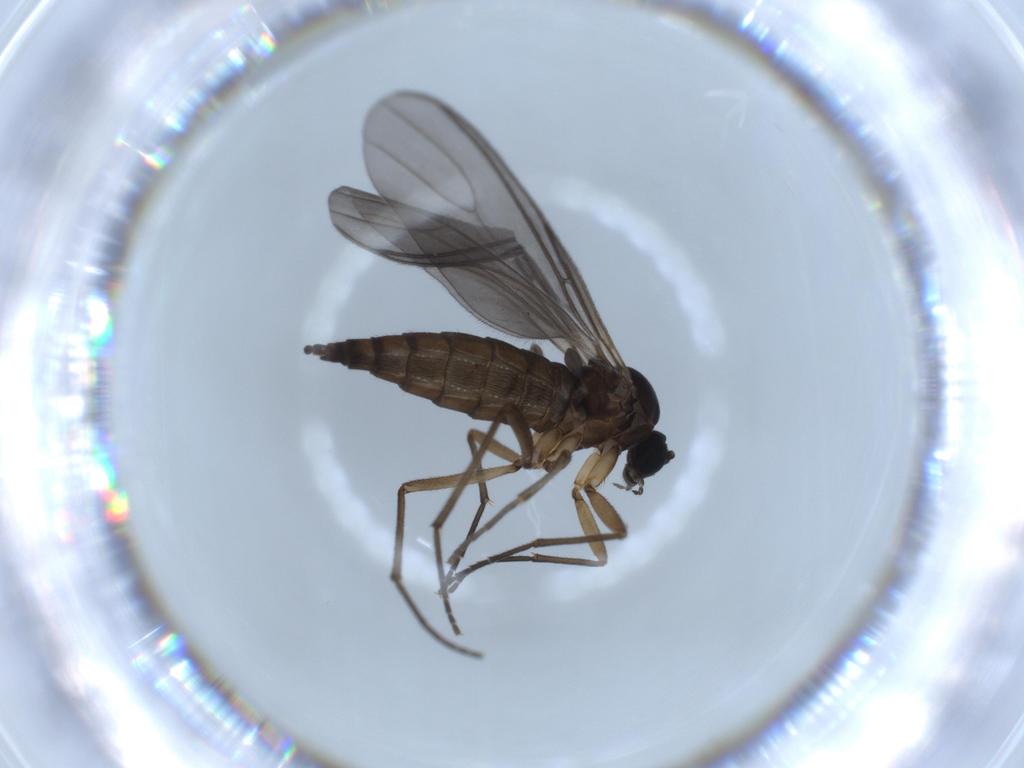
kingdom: Animalia
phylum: Arthropoda
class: Insecta
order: Diptera
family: Sciaridae
